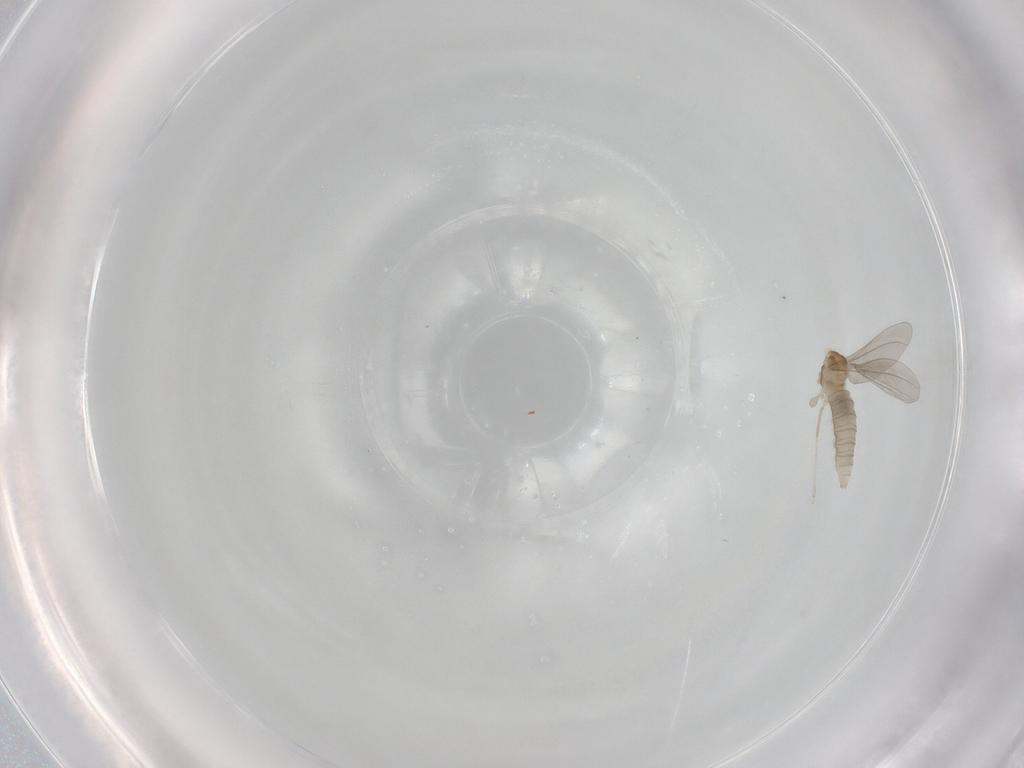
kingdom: Animalia
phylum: Arthropoda
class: Insecta
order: Diptera
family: Cecidomyiidae
